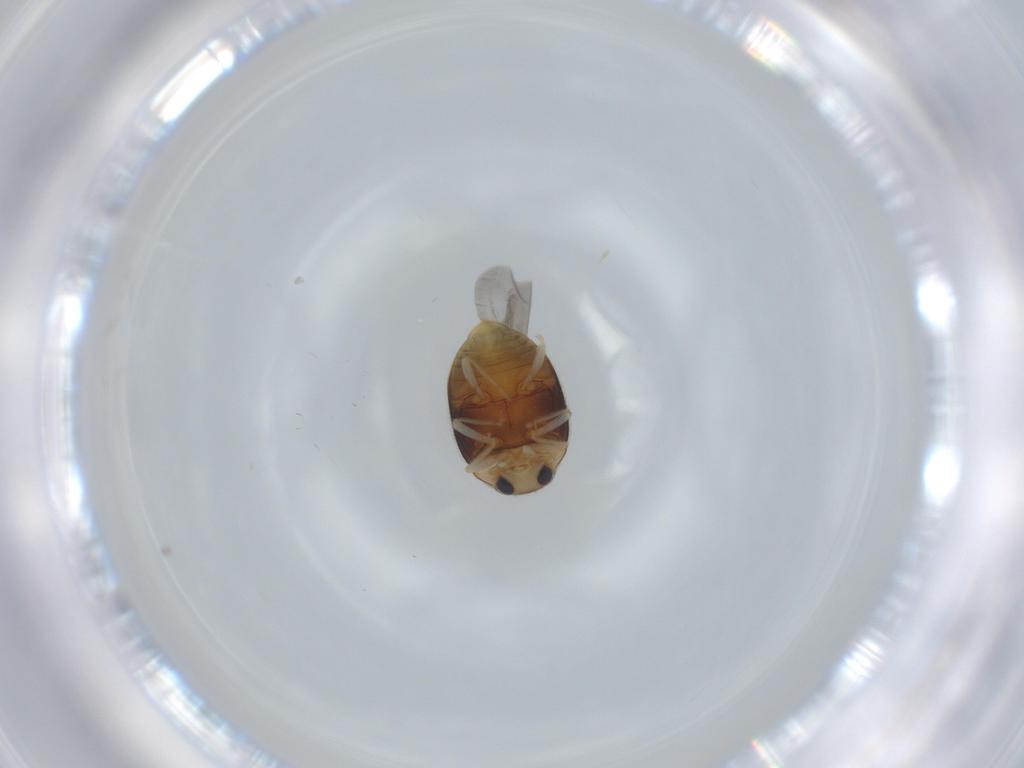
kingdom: Animalia
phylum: Arthropoda
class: Insecta
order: Coleoptera
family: Coccinellidae
